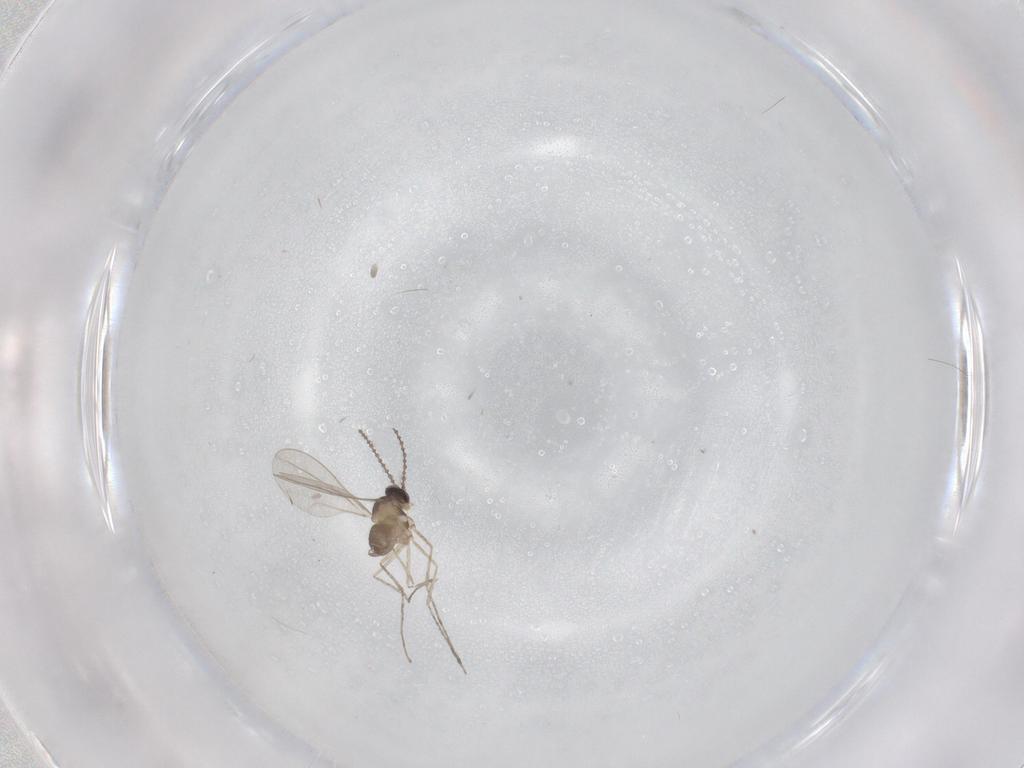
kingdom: Animalia
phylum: Arthropoda
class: Insecta
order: Diptera
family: Cecidomyiidae
